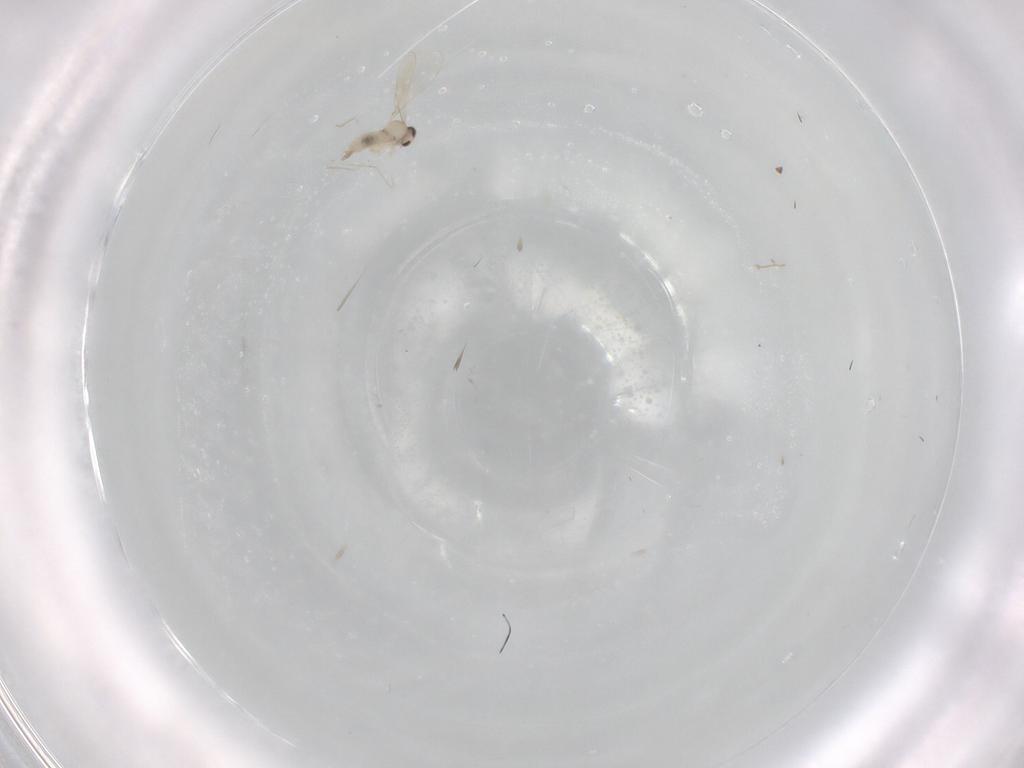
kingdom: Animalia
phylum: Arthropoda
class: Insecta
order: Diptera
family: Cecidomyiidae
